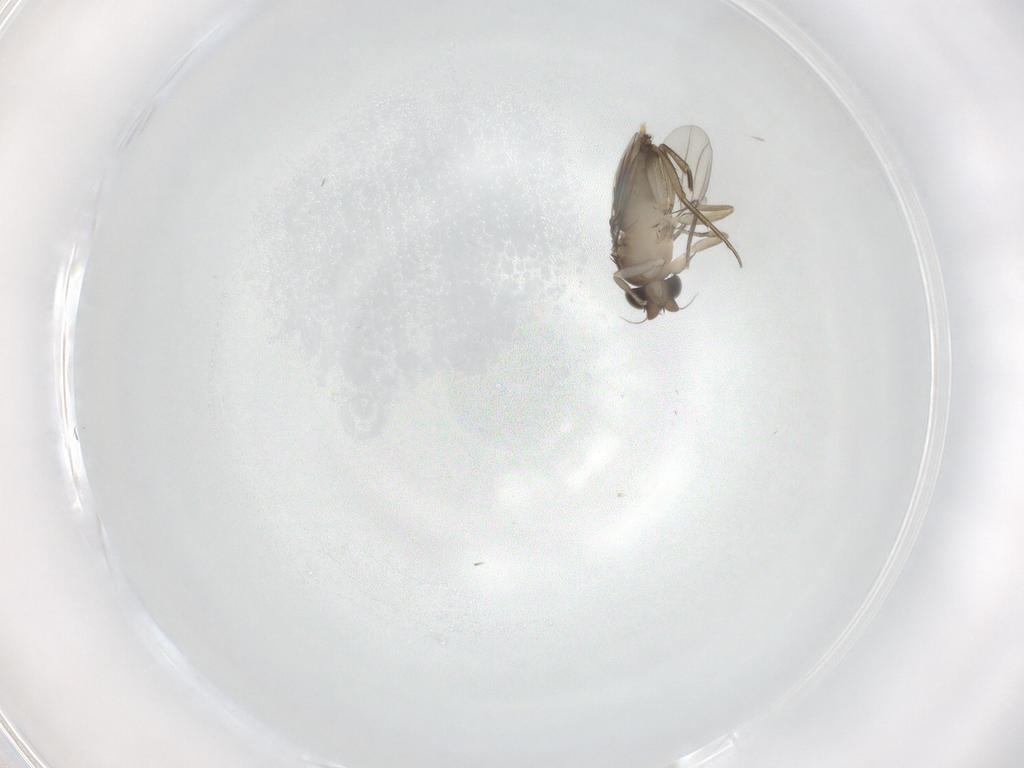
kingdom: Animalia
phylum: Arthropoda
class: Insecta
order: Diptera
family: Phoridae
